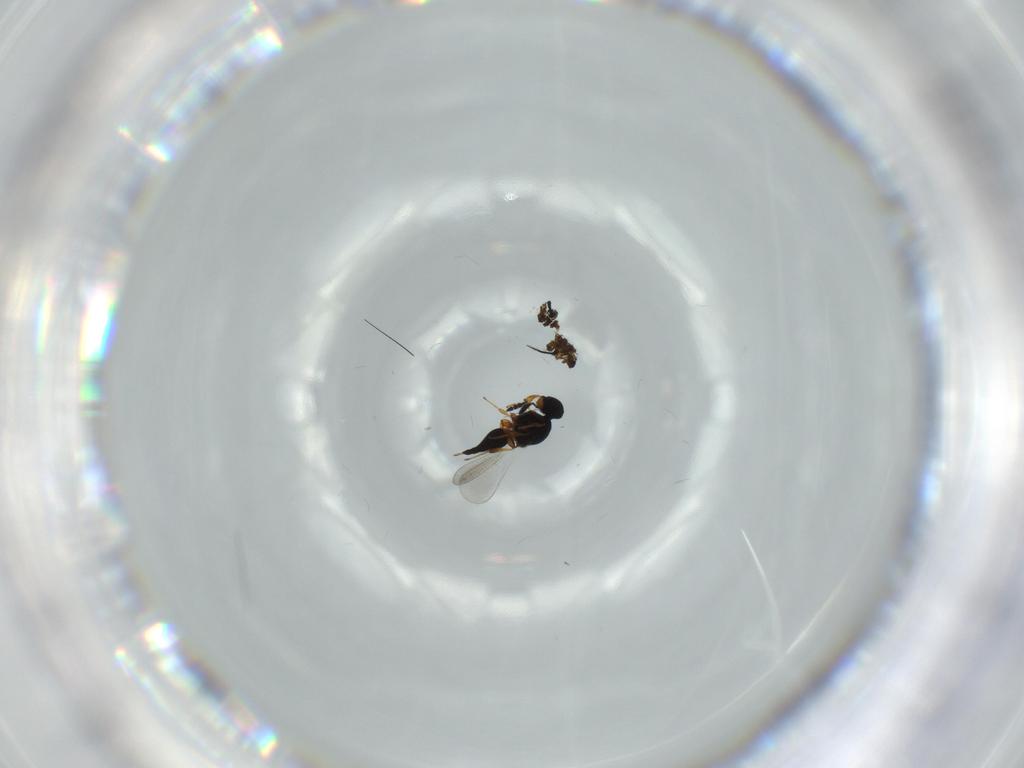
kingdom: Animalia
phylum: Arthropoda
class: Insecta
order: Hymenoptera
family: Platygastridae
